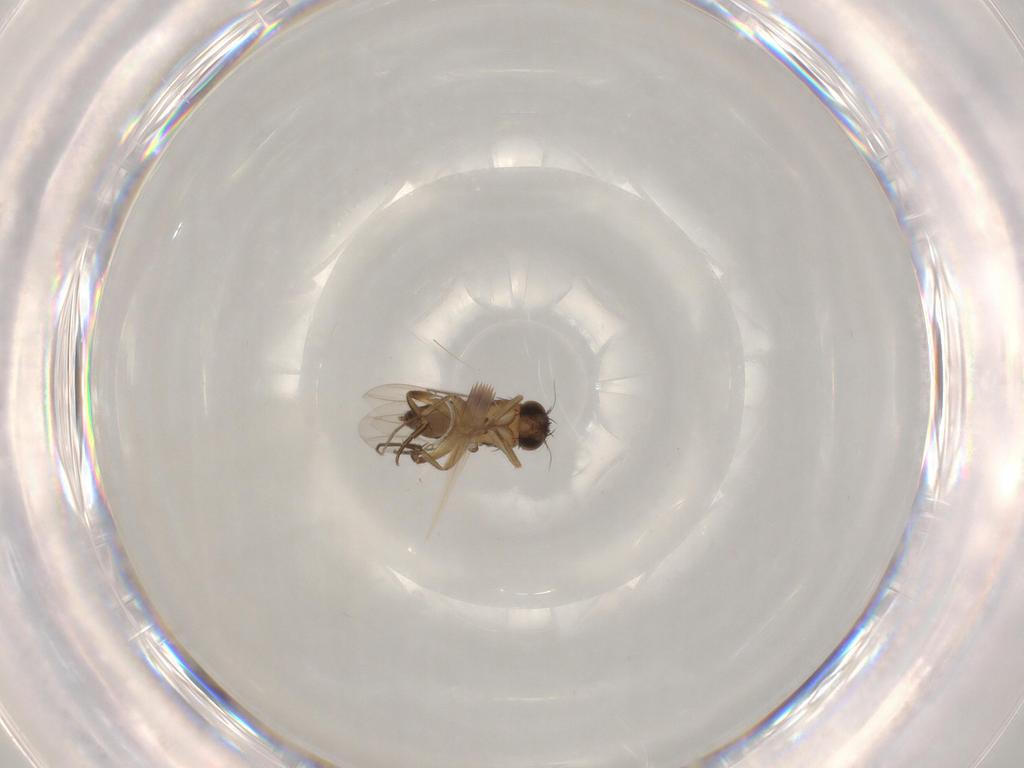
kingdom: Animalia
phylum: Arthropoda
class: Insecta
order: Diptera
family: Phoridae
